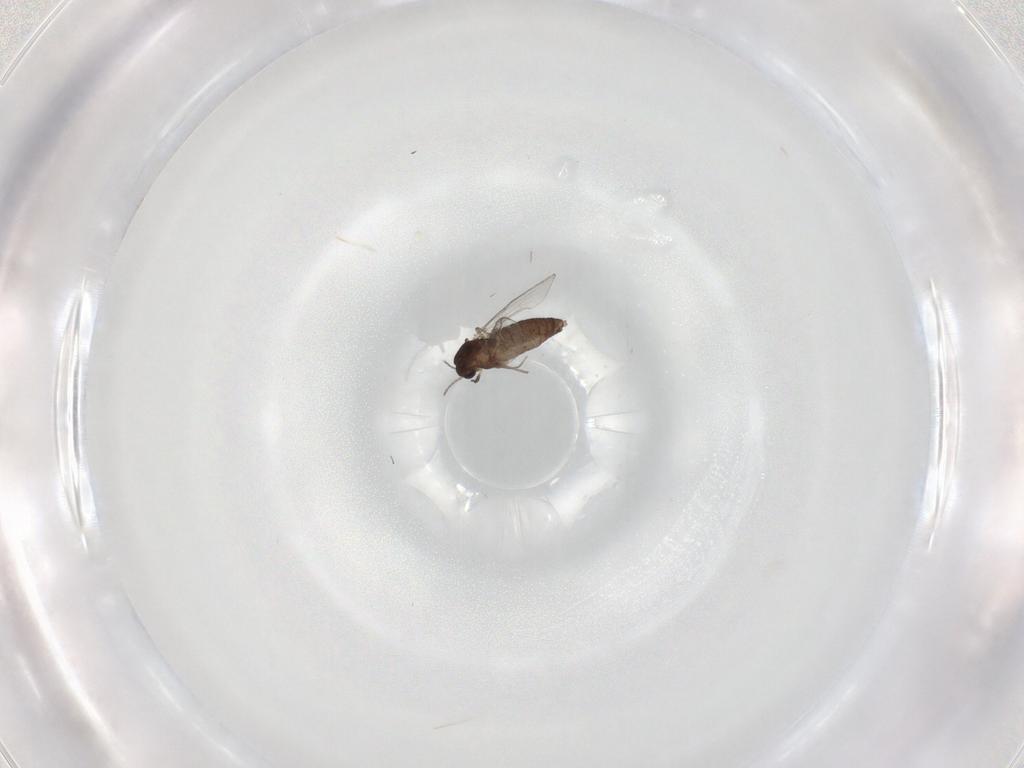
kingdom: Animalia
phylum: Arthropoda
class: Insecta
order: Diptera
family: Chironomidae
